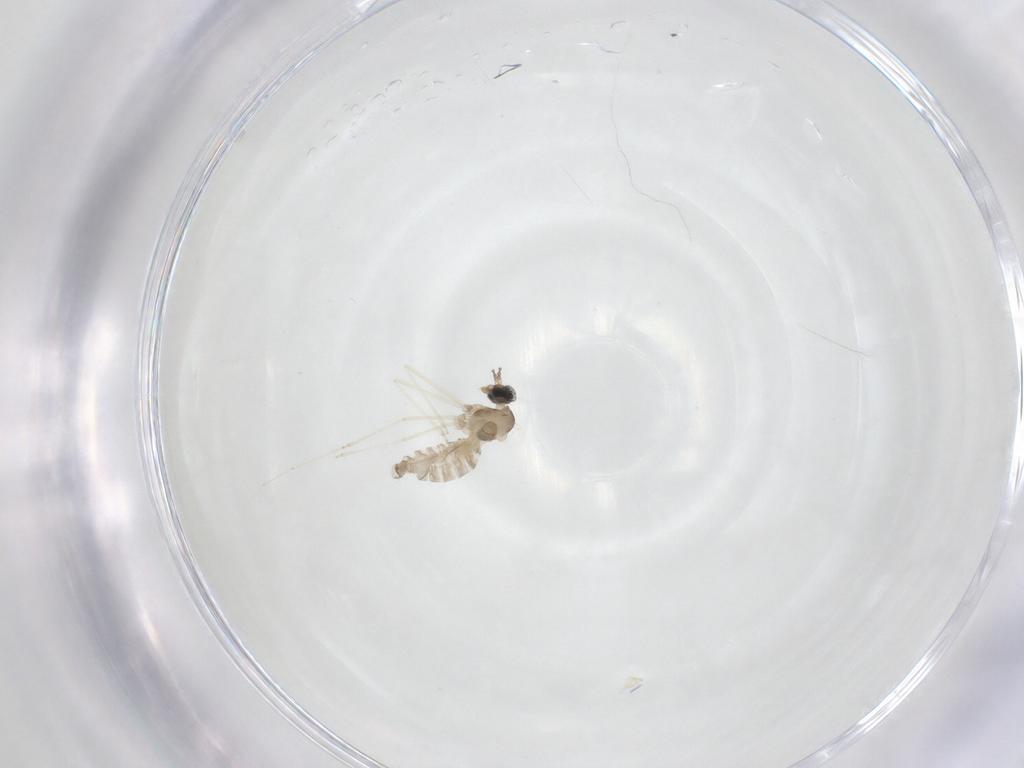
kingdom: Animalia
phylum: Arthropoda
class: Insecta
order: Diptera
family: Cecidomyiidae
